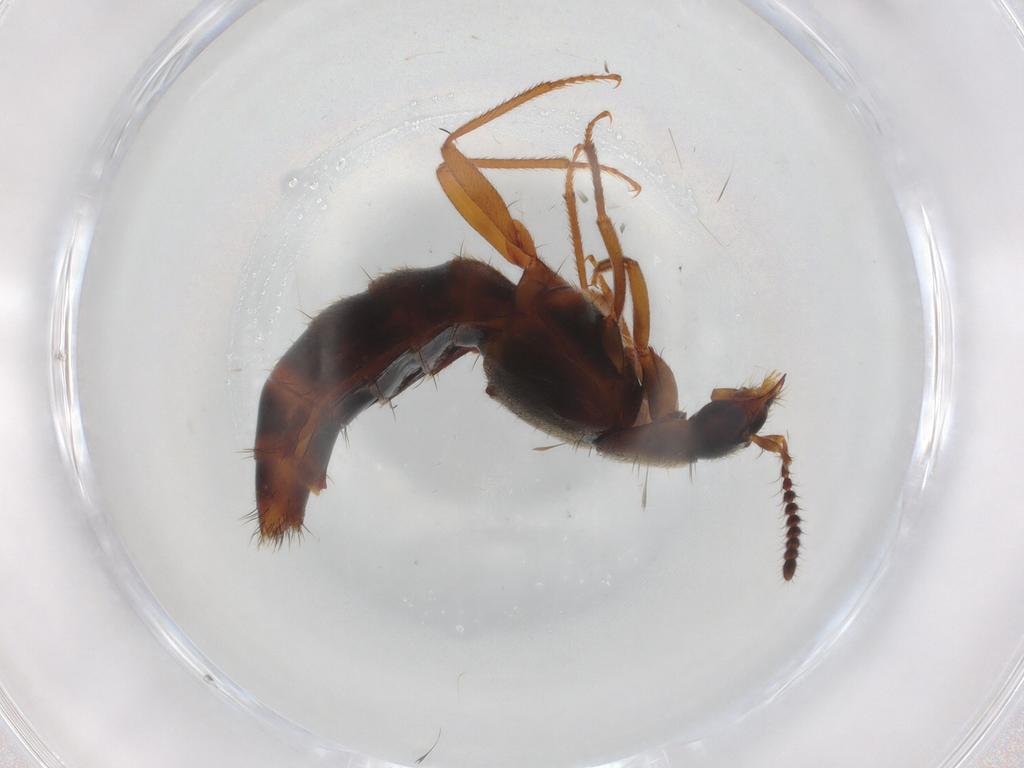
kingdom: Animalia
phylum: Arthropoda
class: Insecta
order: Coleoptera
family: Staphylinidae
